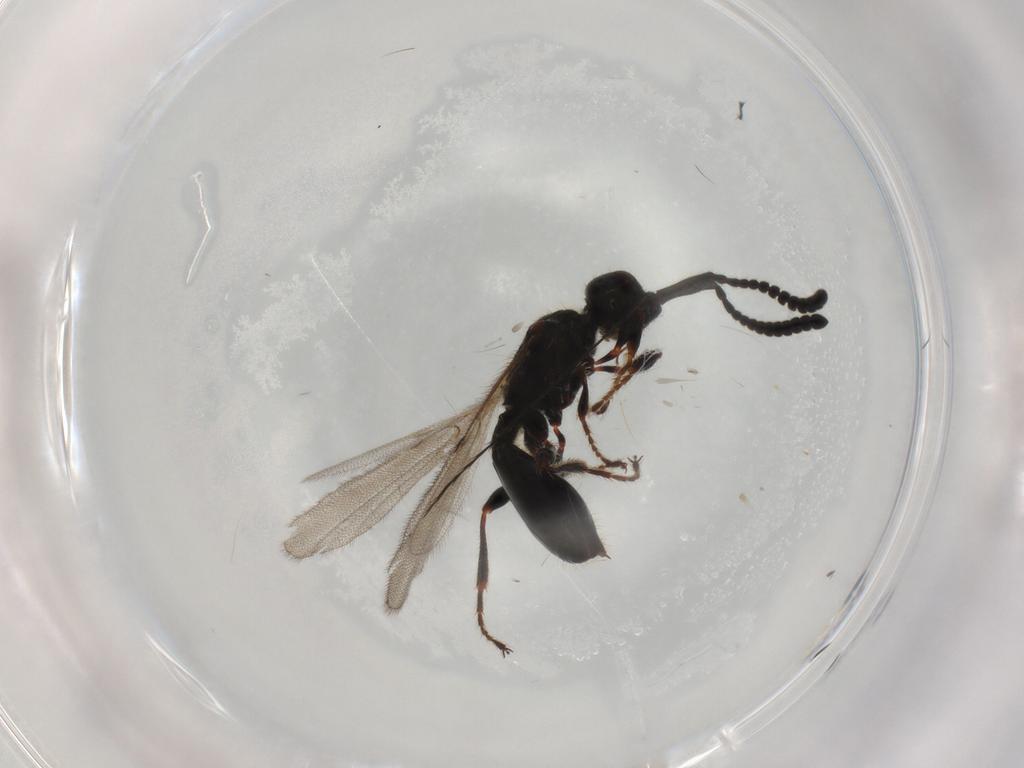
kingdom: Animalia
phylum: Arthropoda
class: Insecta
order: Hymenoptera
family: Diapriidae
